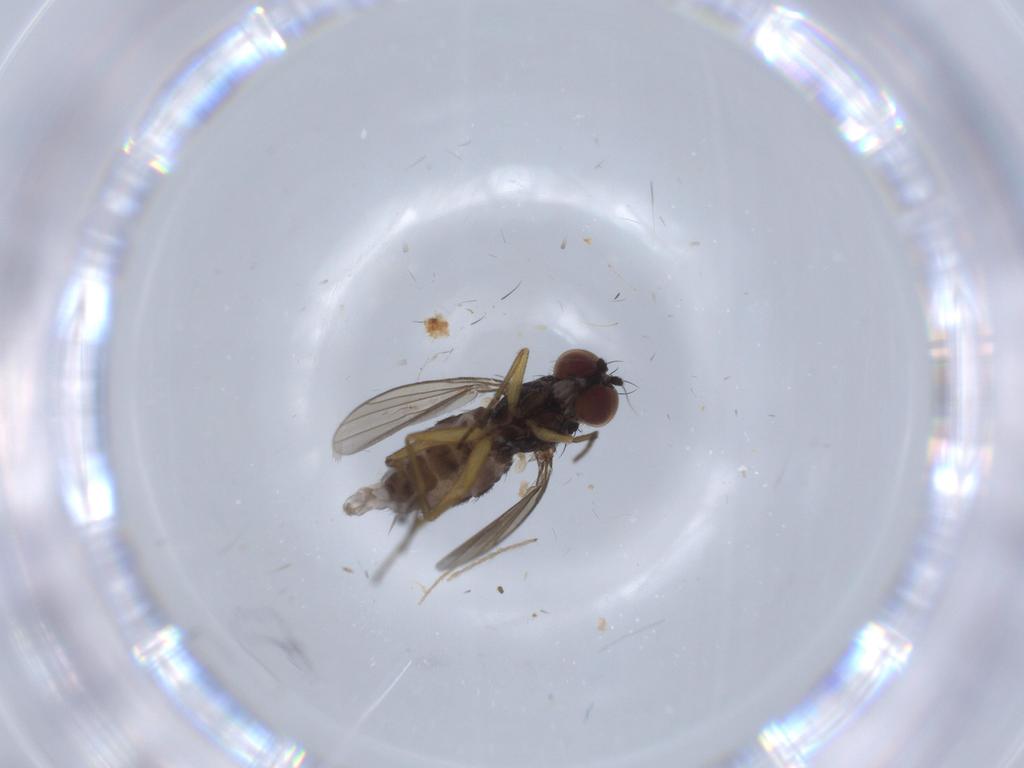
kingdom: Animalia
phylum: Arthropoda
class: Insecta
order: Diptera
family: Dolichopodidae
